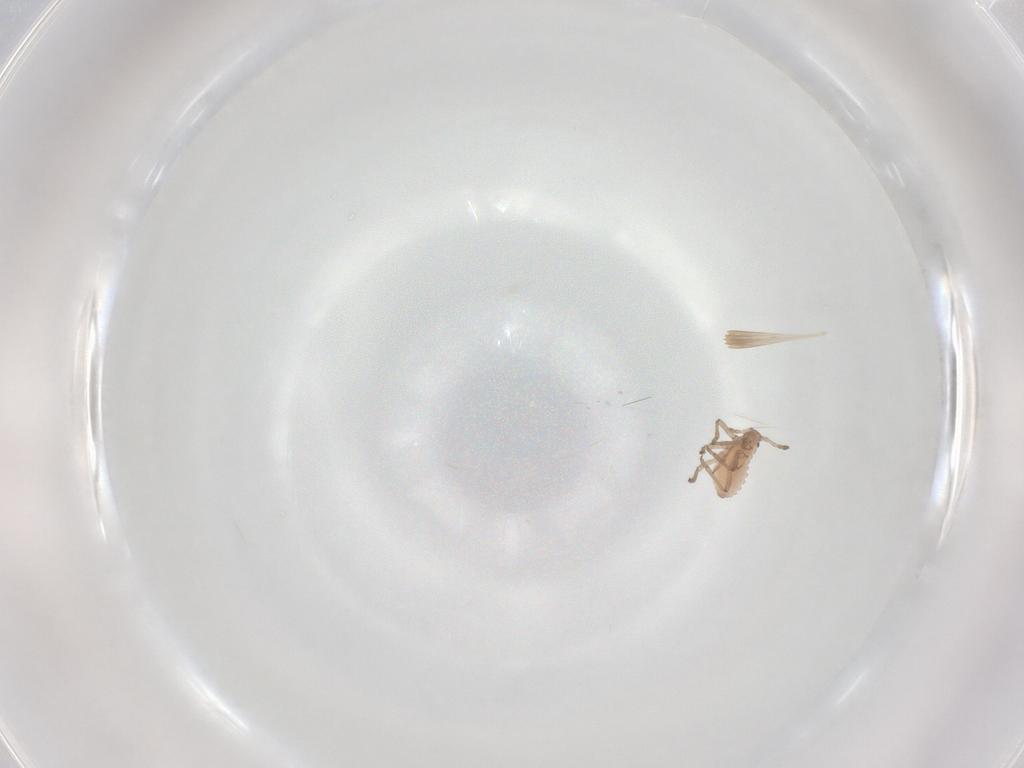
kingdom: Animalia
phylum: Arthropoda
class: Insecta
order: Hemiptera
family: Aphididae
